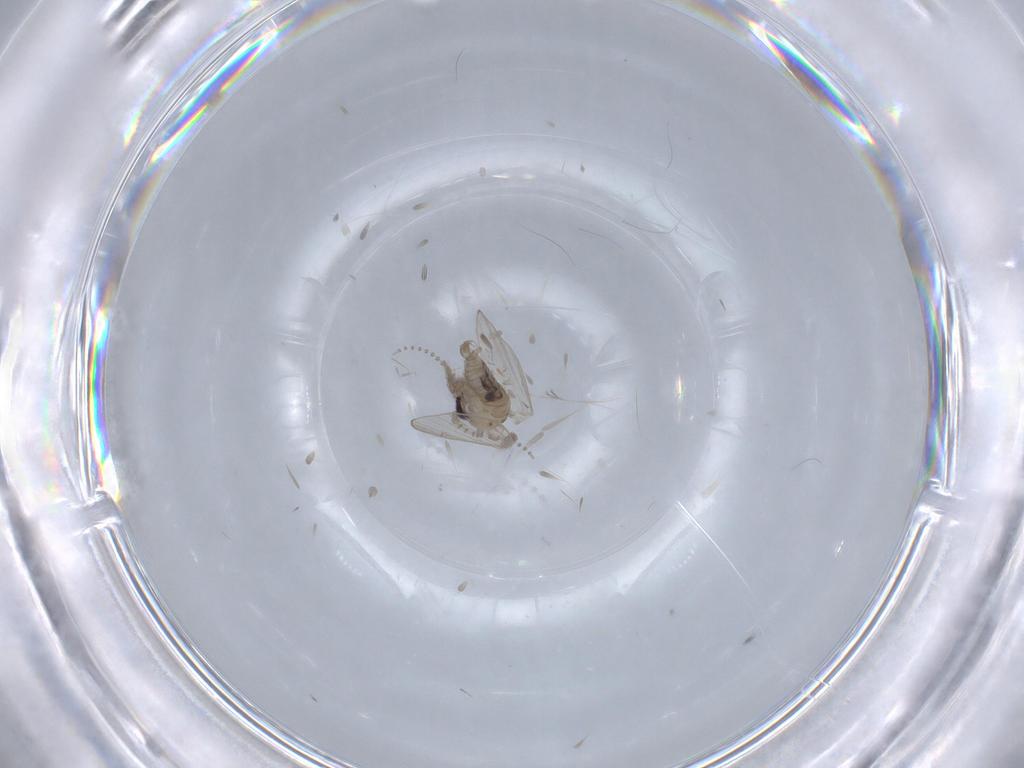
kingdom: Animalia
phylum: Arthropoda
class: Insecta
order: Diptera
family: Psychodidae
